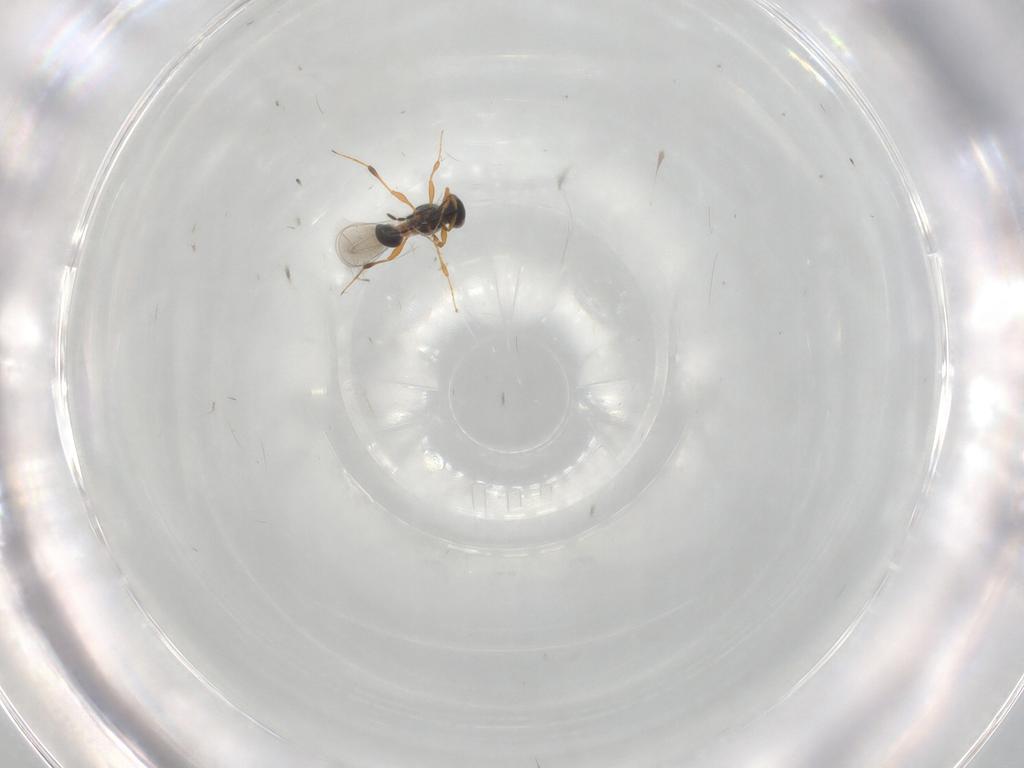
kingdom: Animalia
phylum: Arthropoda
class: Insecta
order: Hymenoptera
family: Platygastridae
